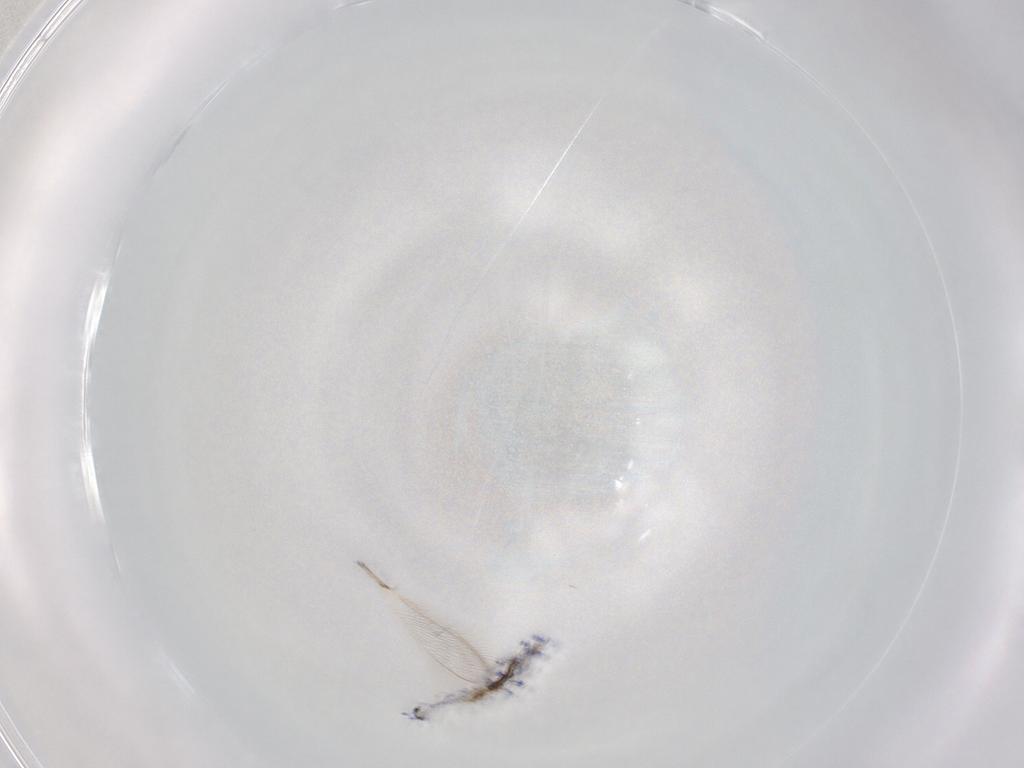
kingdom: Animalia
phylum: Arthropoda
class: Collembola
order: Entomobryomorpha
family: Entomobryidae
